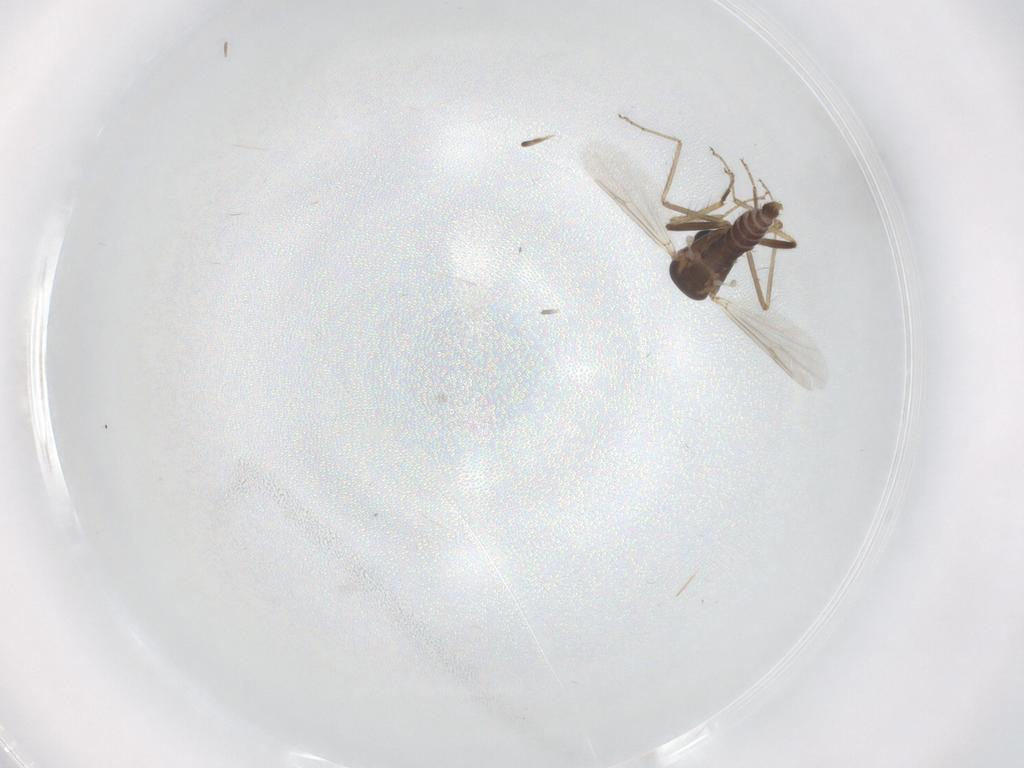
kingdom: Animalia
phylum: Arthropoda
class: Insecta
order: Diptera
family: Ceratopogonidae
